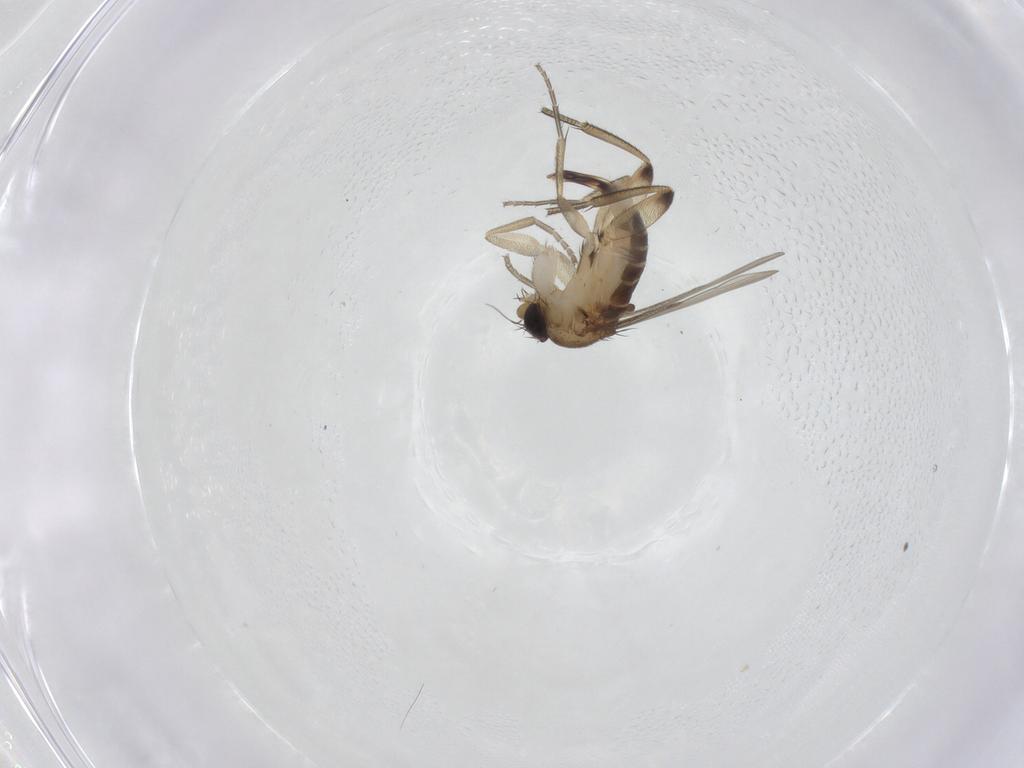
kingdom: Animalia
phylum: Arthropoda
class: Insecta
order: Diptera
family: Phoridae
